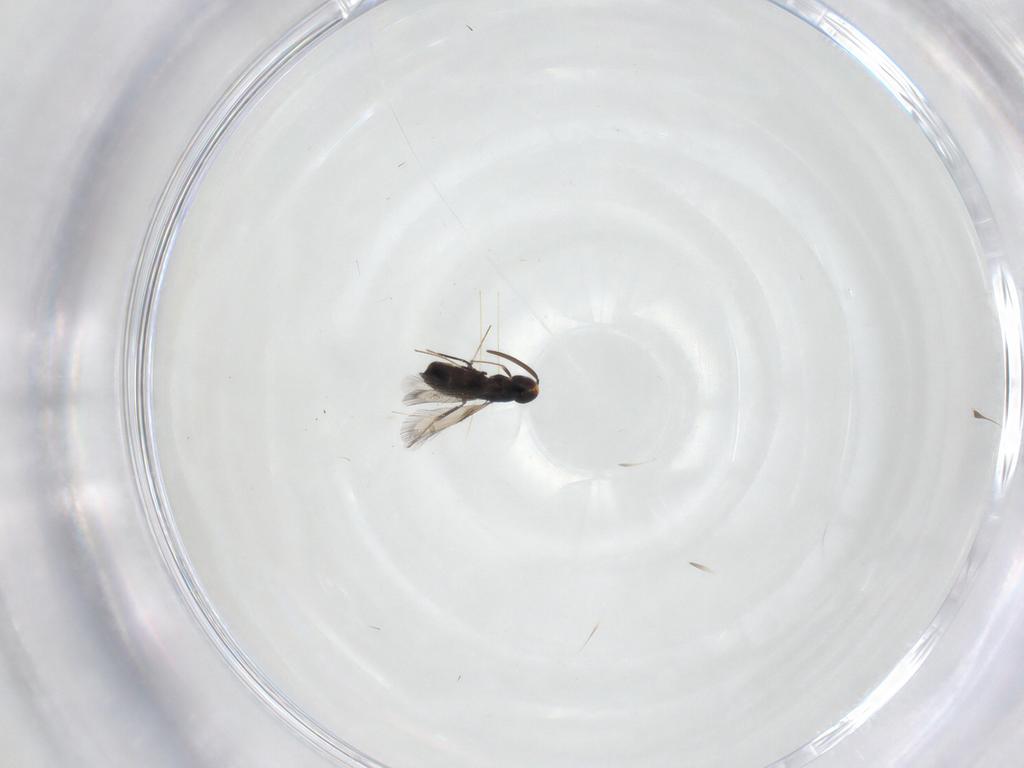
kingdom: Animalia
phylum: Arthropoda
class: Insecta
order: Hymenoptera
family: Signiphoridae
